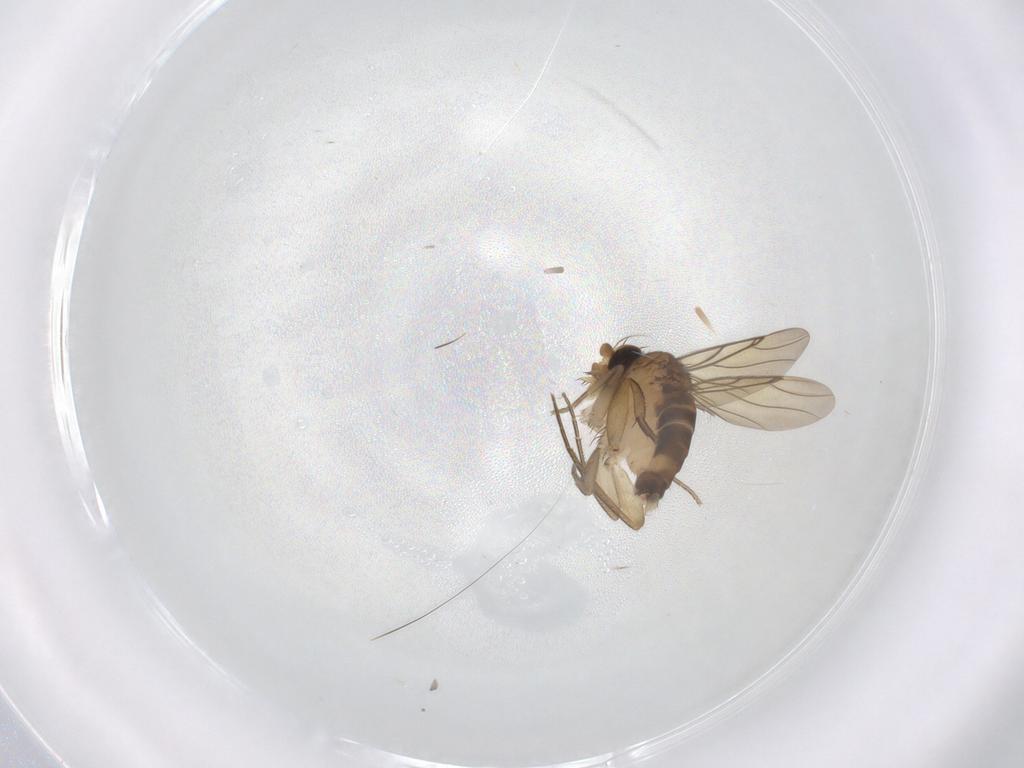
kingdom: Animalia
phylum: Arthropoda
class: Insecta
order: Diptera
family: Phoridae
